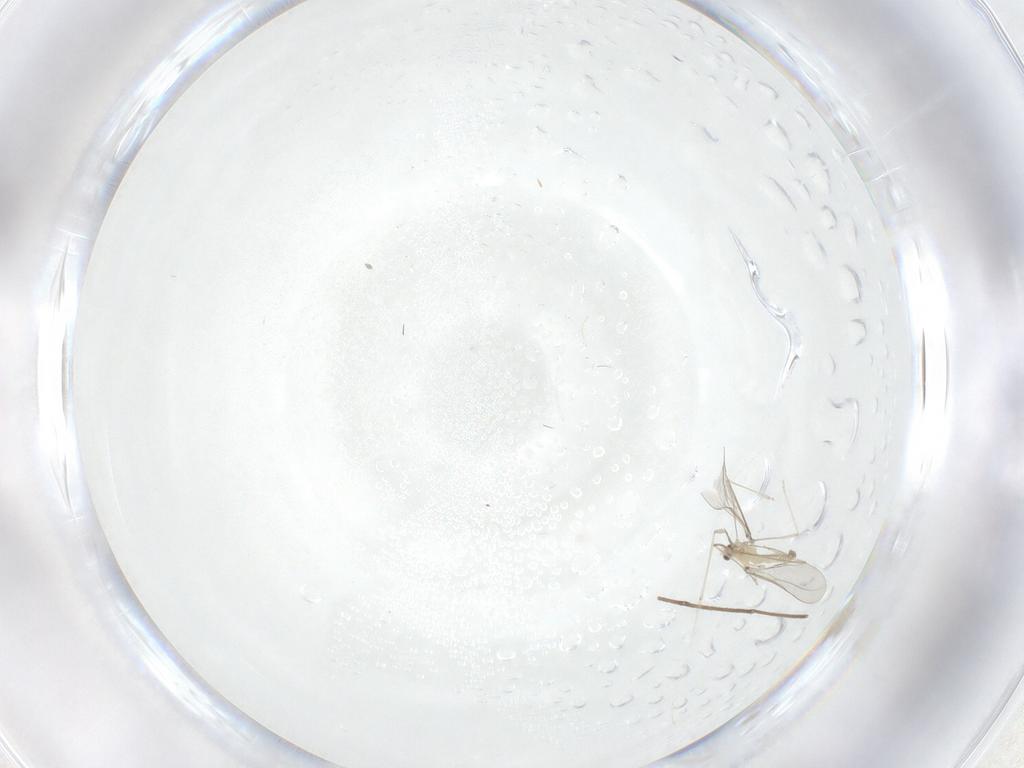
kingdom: Animalia
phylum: Arthropoda
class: Insecta
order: Diptera
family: Cecidomyiidae
